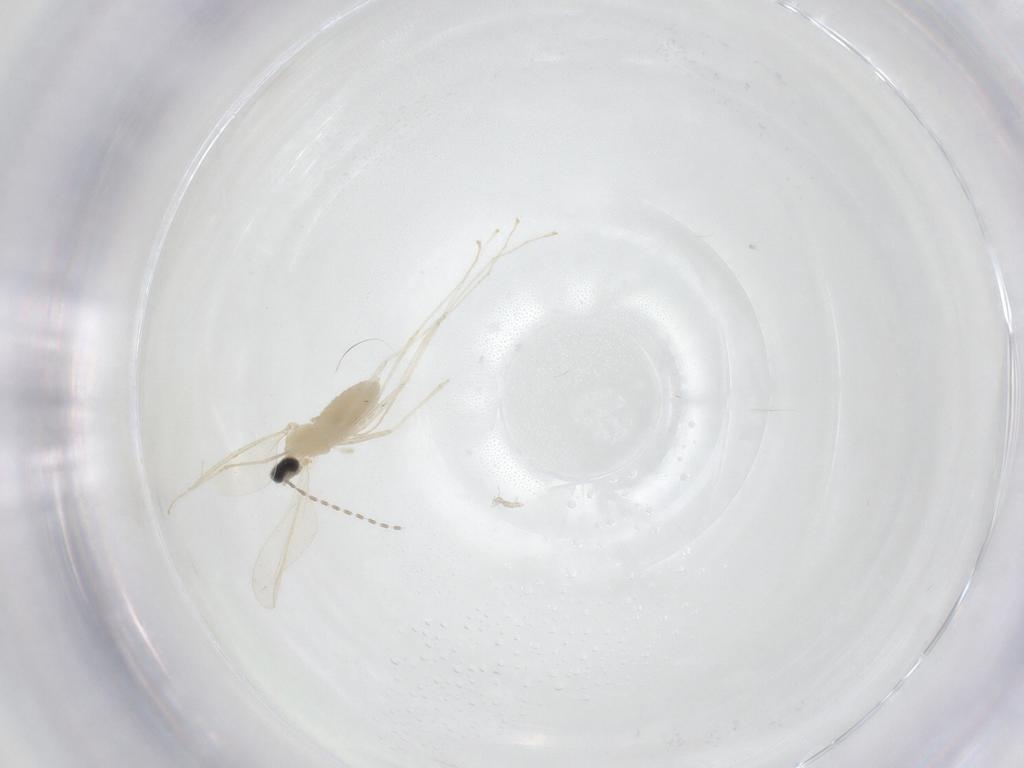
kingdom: Animalia
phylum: Arthropoda
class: Insecta
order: Diptera
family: Cecidomyiidae
